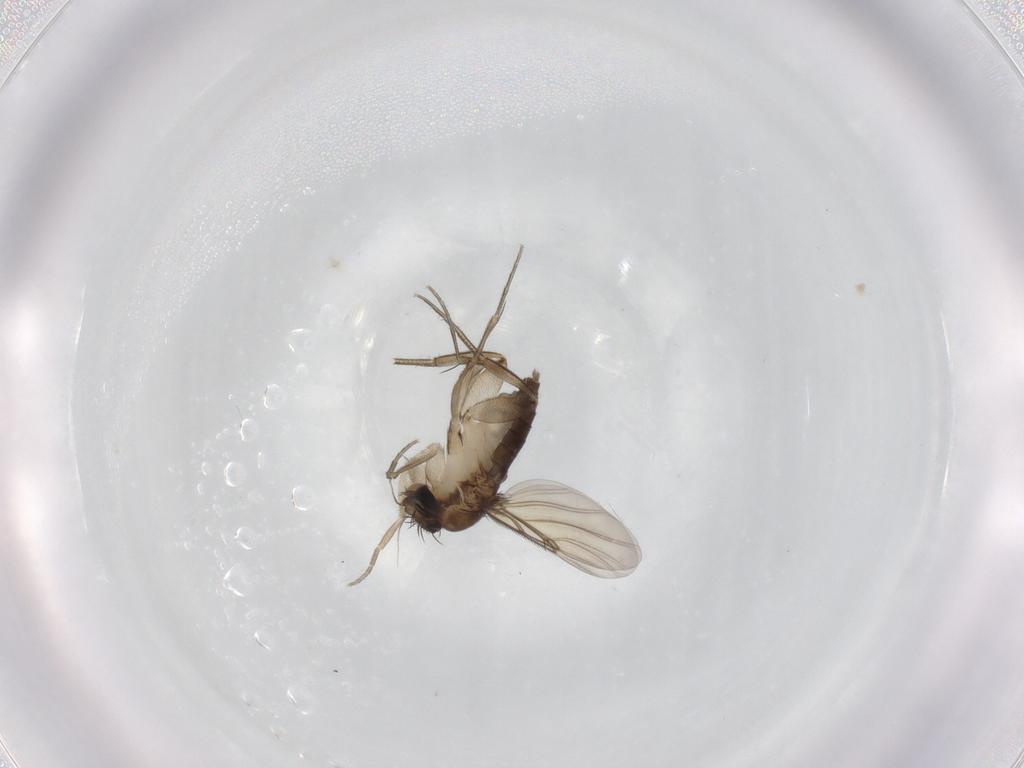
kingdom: Animalia
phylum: Arthropoda
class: Insecta
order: Diptera
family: Phoridae
